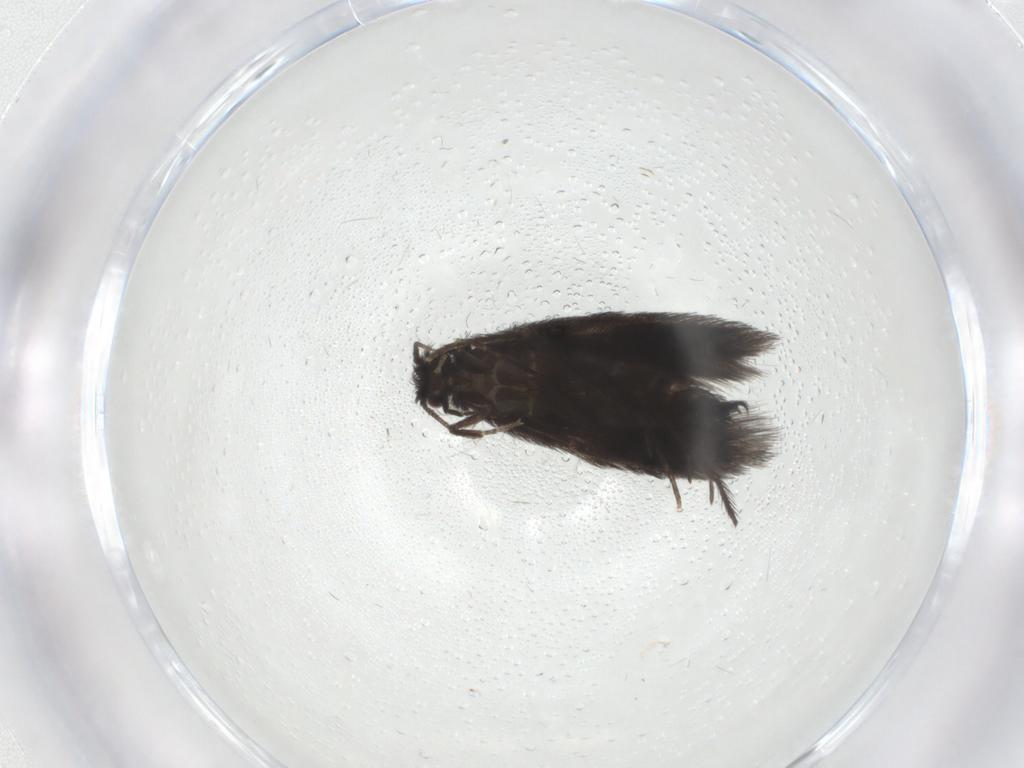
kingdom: Animalia
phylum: Arthropoda
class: Insecta
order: Trichoptera
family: Hydroptilidae
